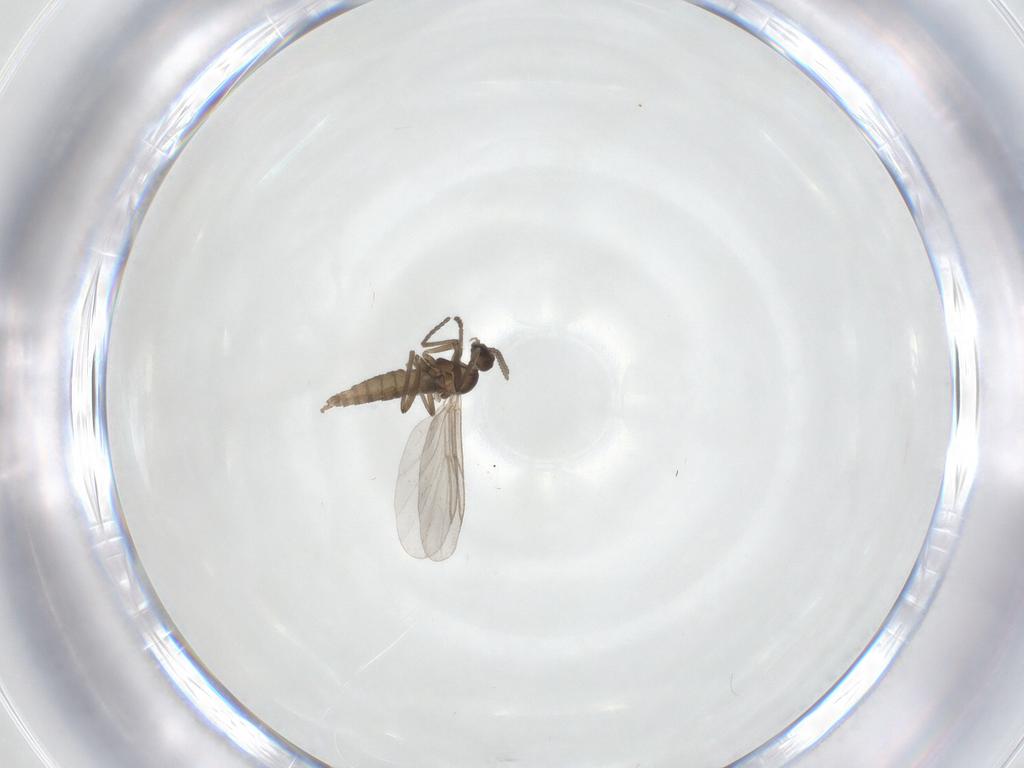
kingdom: Animalia
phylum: Arthropoda
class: Insecta
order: Diptera
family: Cecidomyiidae
